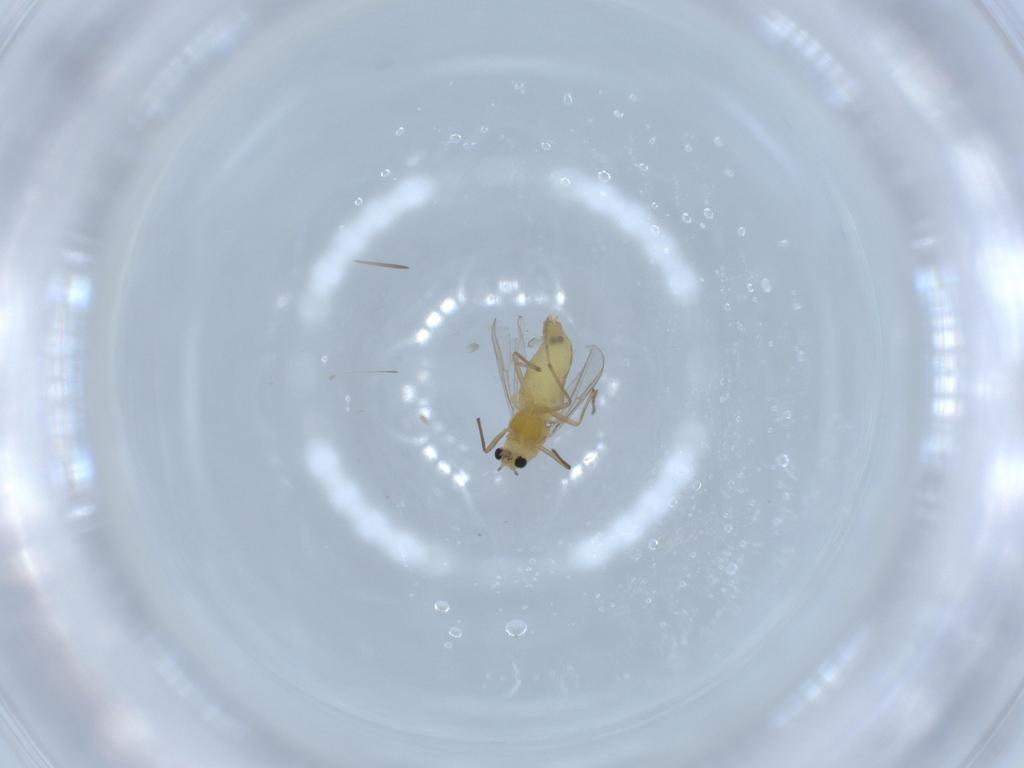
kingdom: Animalia
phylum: Arthropoda
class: Insecta
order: Diptera
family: Chironomidae
